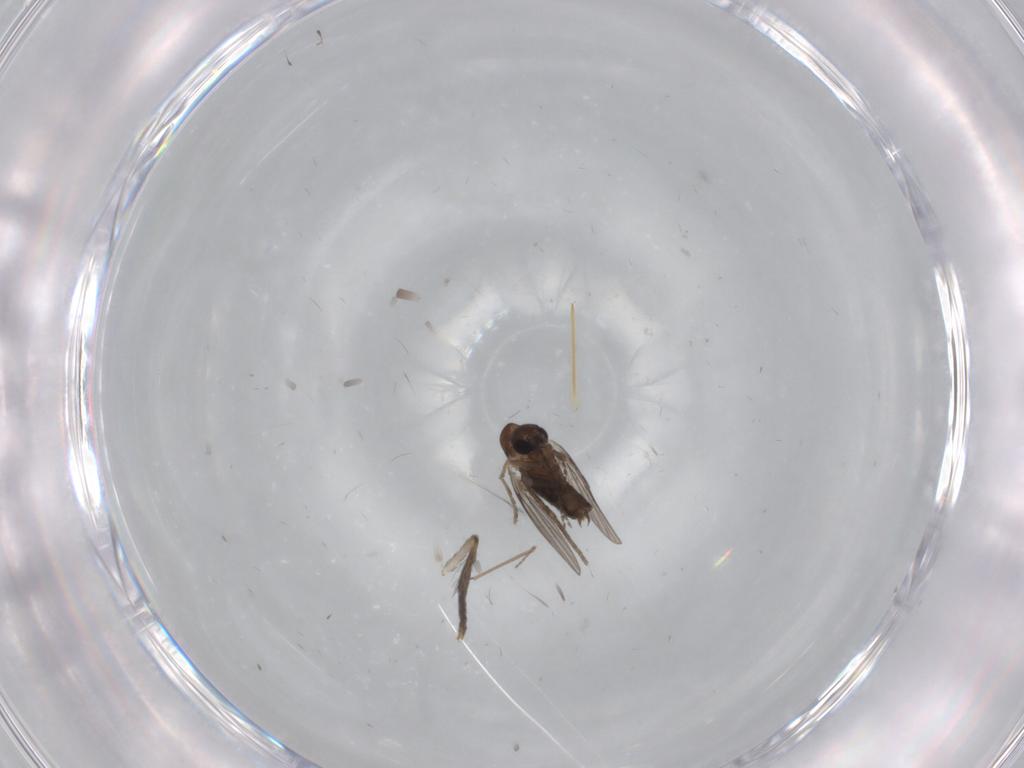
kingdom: Animalia
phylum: Arthropoda
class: Insecta
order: Diptera
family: Psychodidae
